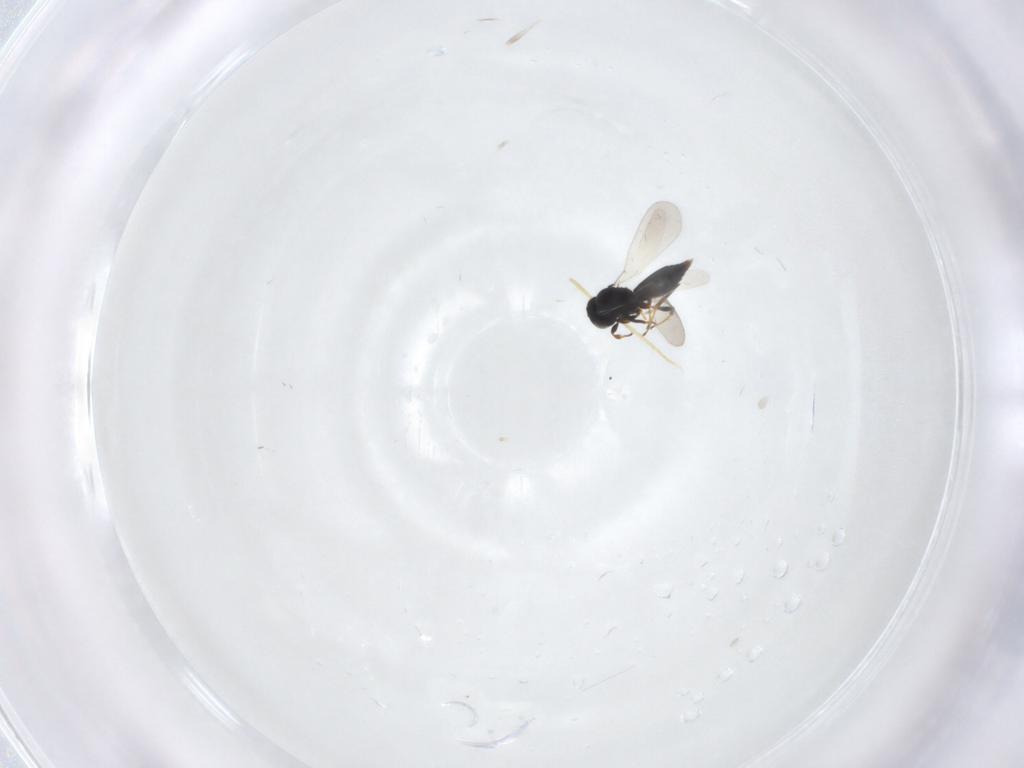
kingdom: Animalia
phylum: Arthropoda
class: Insecta
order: Hymenoptera
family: Platygastridae
